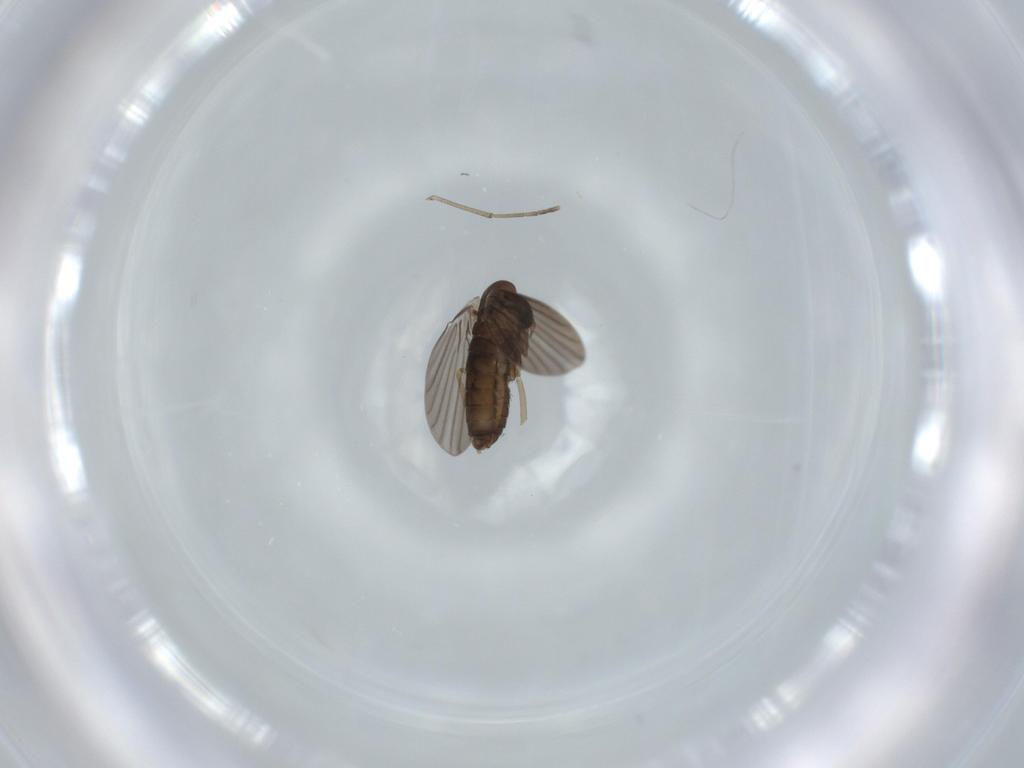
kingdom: Animalia
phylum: Arthropoda
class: Insecta
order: Diptera
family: Psychodidae
